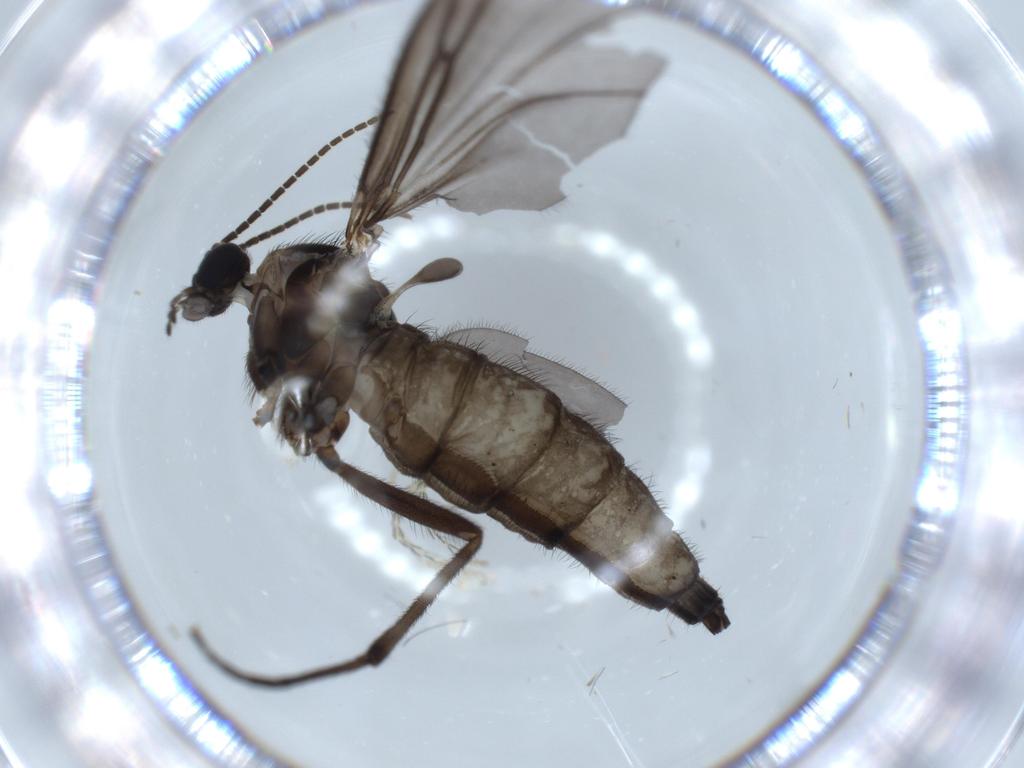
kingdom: Animalia
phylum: Arthropoda
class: Insecta
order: Diptera
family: Sciaridae
